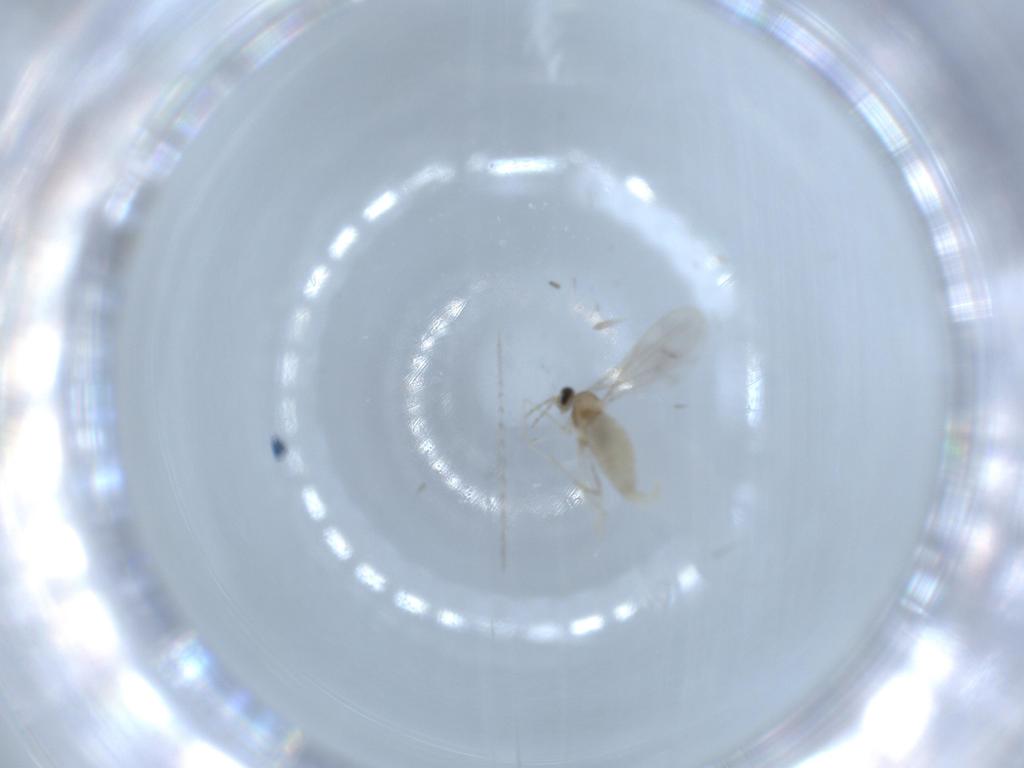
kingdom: Animalia
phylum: Arthropoda
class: Insecta
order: Diptera
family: Cecidomyiidae
